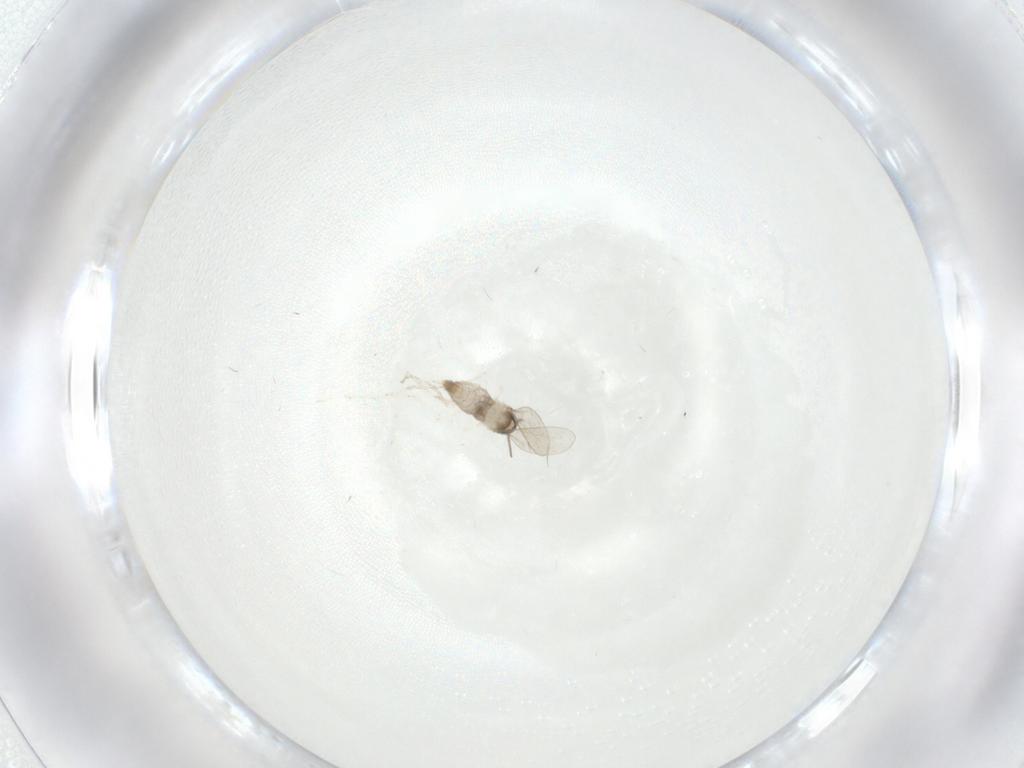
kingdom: Animalia
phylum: Arthropoda
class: Insecta
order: Diptera
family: Cecidomyiidae
